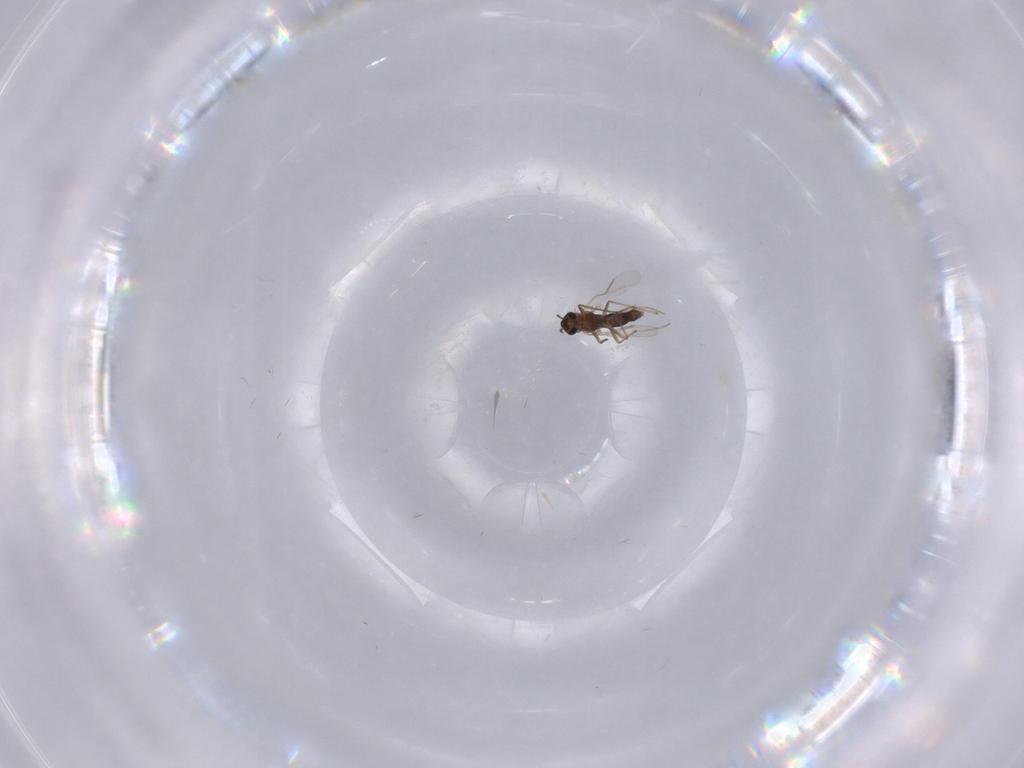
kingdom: Animalia
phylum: Arthropoda
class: Insecta
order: Diptera
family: Chironomidae
